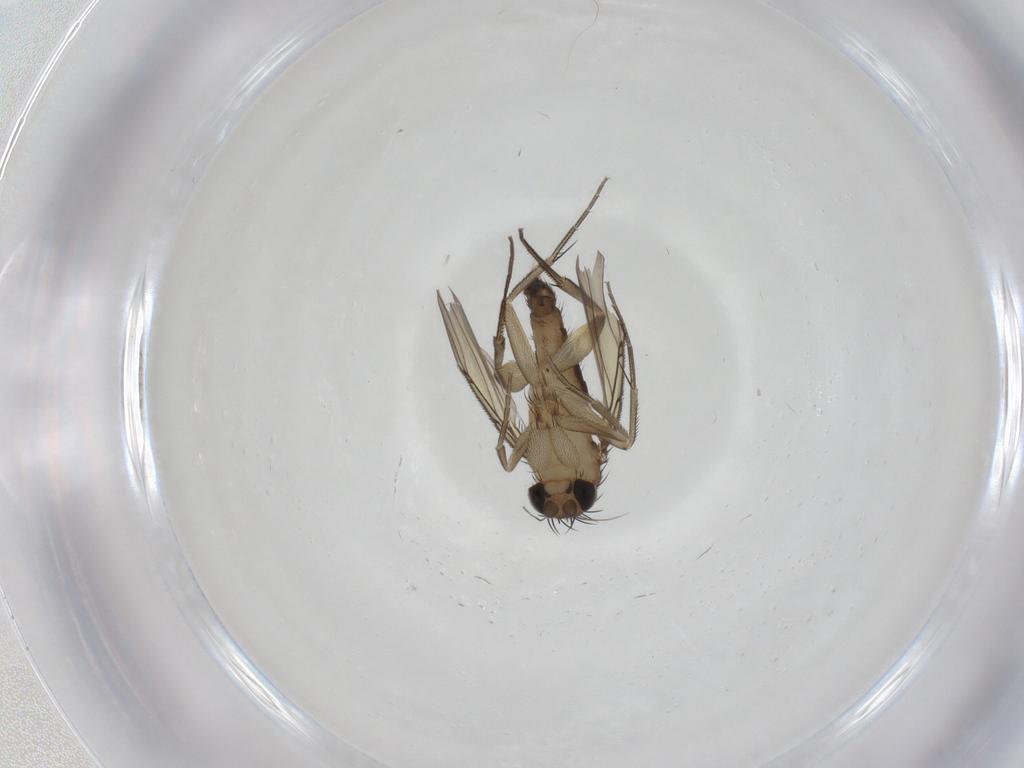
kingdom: Animalia
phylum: Arthropoda
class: Insecta
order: Diptera
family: Phoridae
